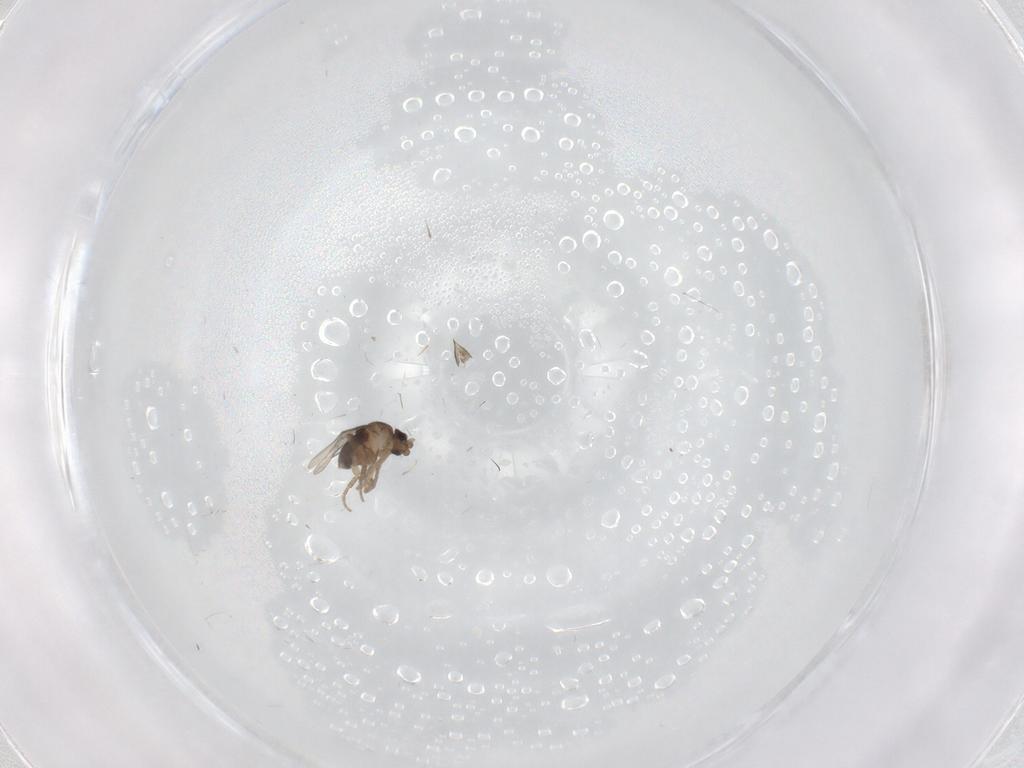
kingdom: Animalia
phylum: Arthropoda
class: Insecta
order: Diptera
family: Phoridae
